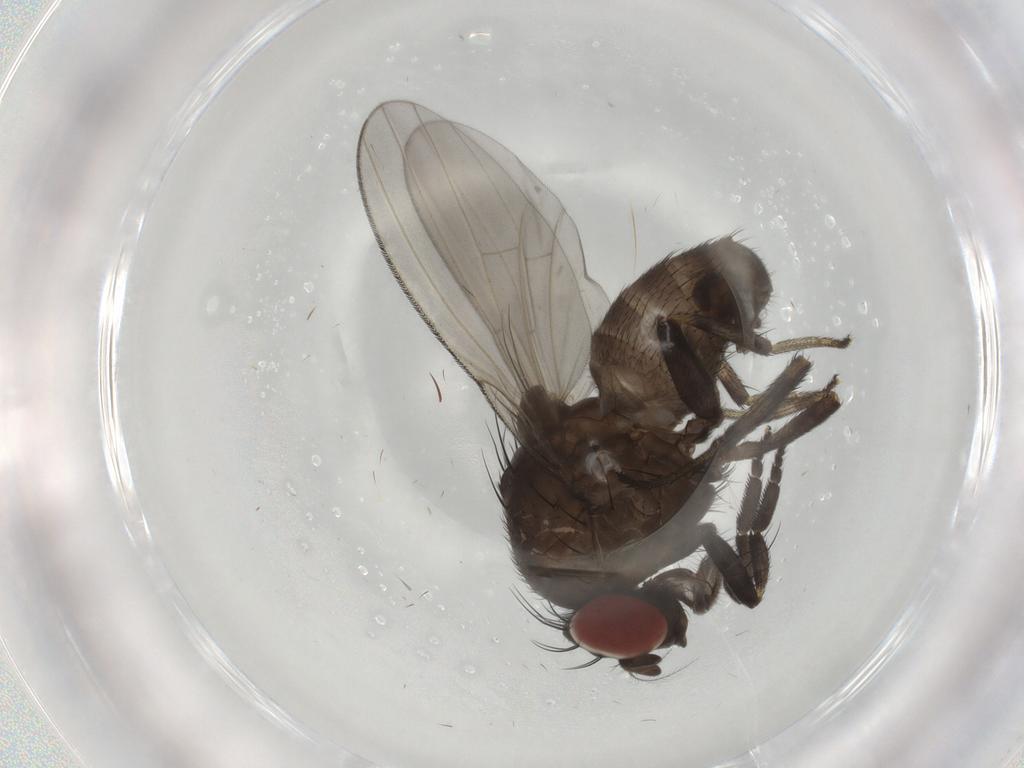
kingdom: Animalia
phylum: Arthropoda
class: Insecta
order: Diptera
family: Lauxaniidae
